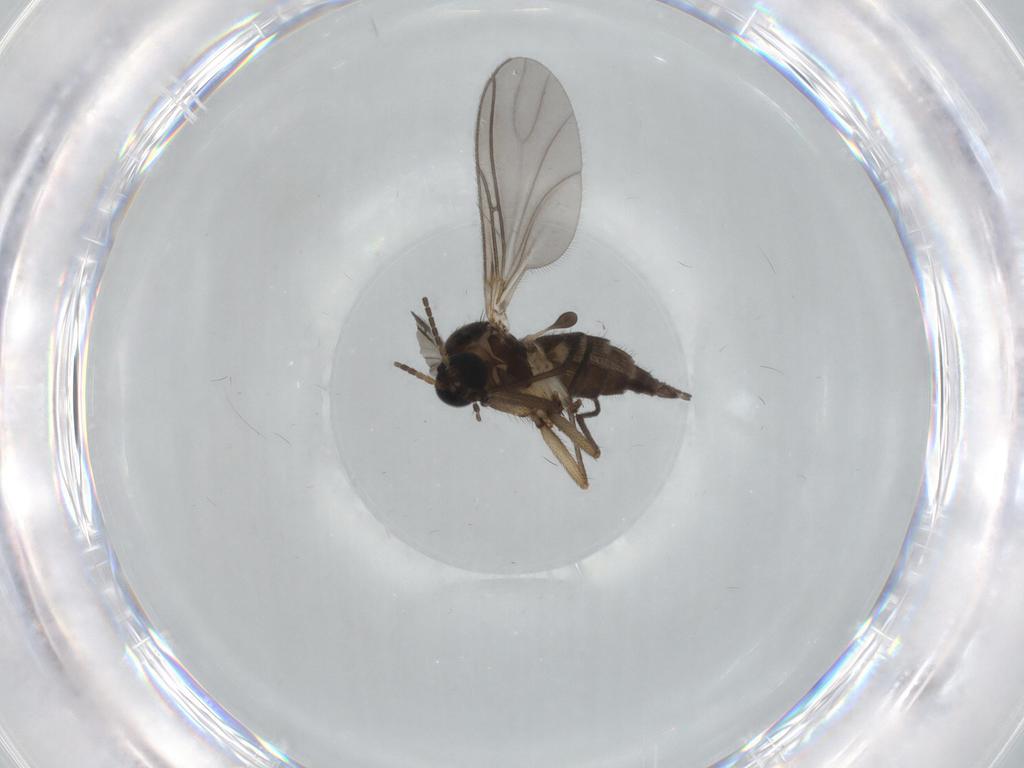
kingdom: Animalia
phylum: Arthropoda
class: Insecta
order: Diptera
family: Sciaridae
